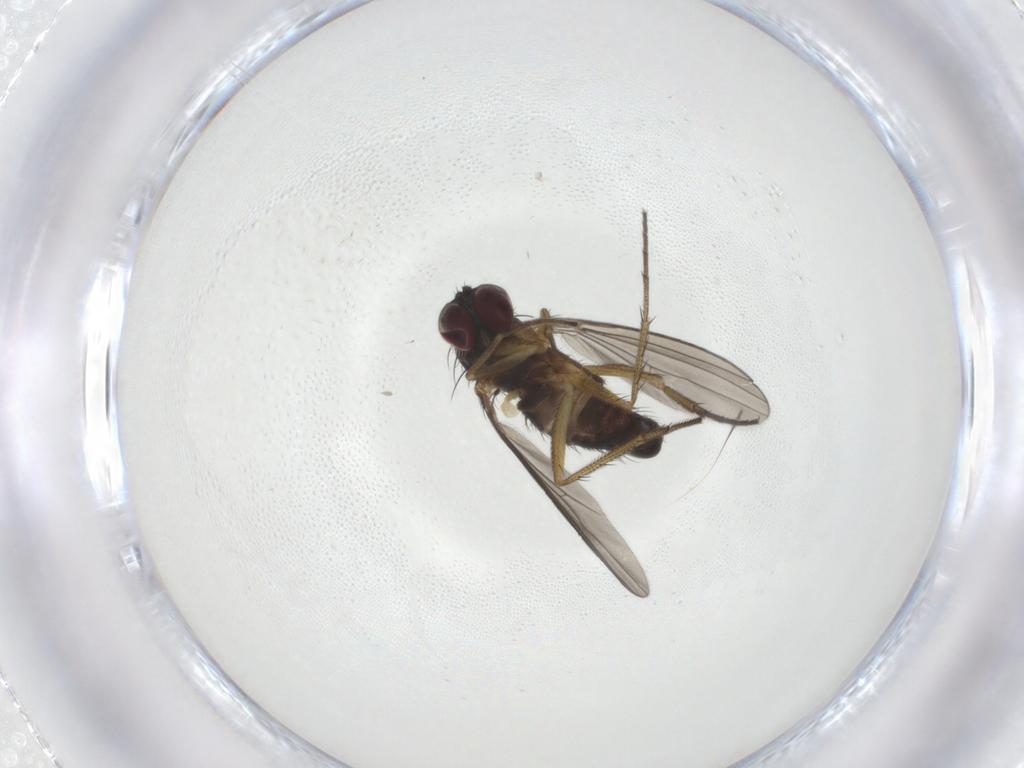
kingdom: Animalia
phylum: Arthropoda
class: Insecta
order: Diptera
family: Dolichopodidae
